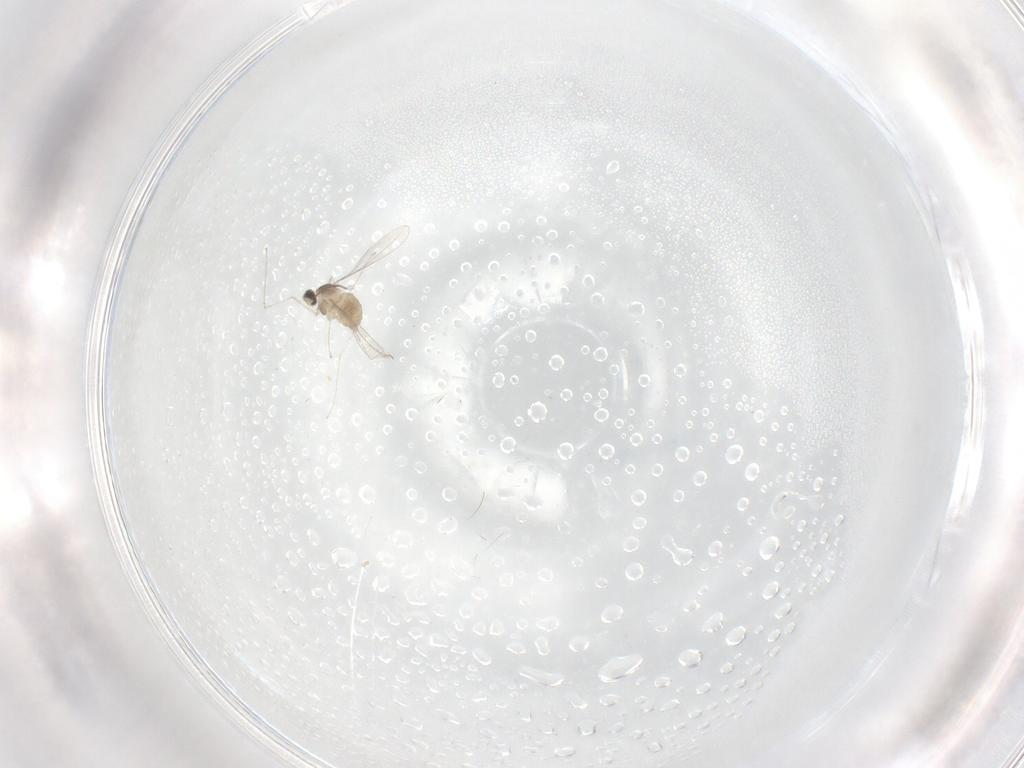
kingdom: Animalia
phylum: Arthropoda
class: Insecta
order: Diptera
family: Cecidomyiidae
